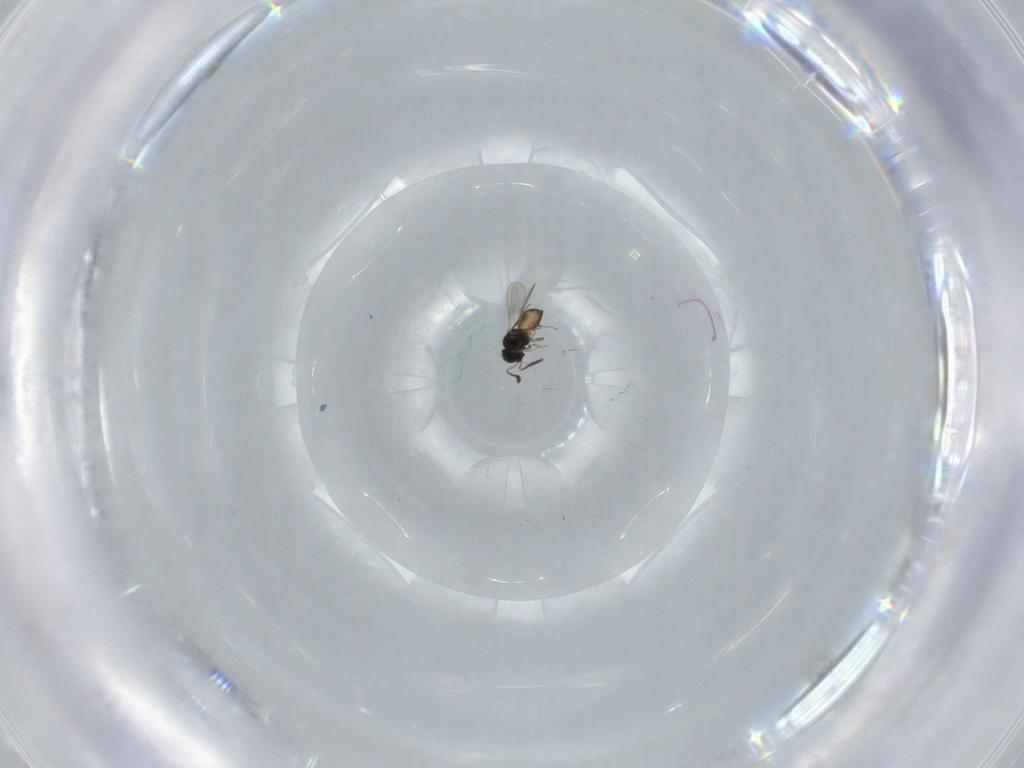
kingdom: Animalia
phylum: Arthropoda
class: Insecta
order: Hymenoptera
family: Scelionidae
